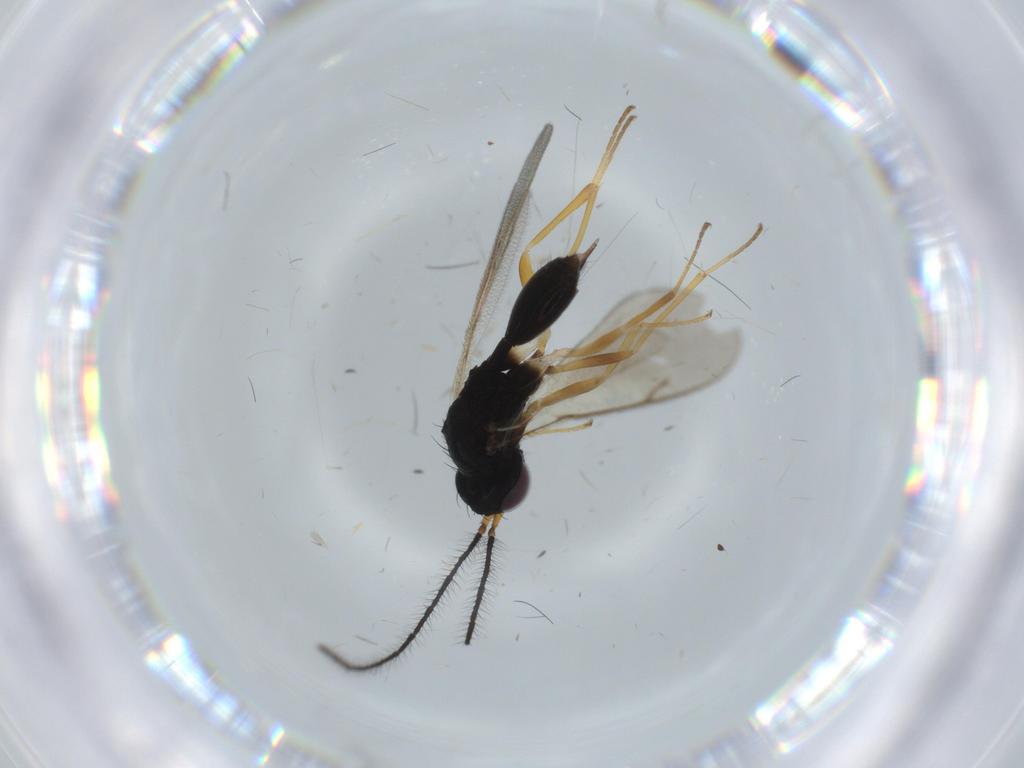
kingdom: Animalia
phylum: Arthropoda
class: Insecta
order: Hymenoptera
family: Diparidae
